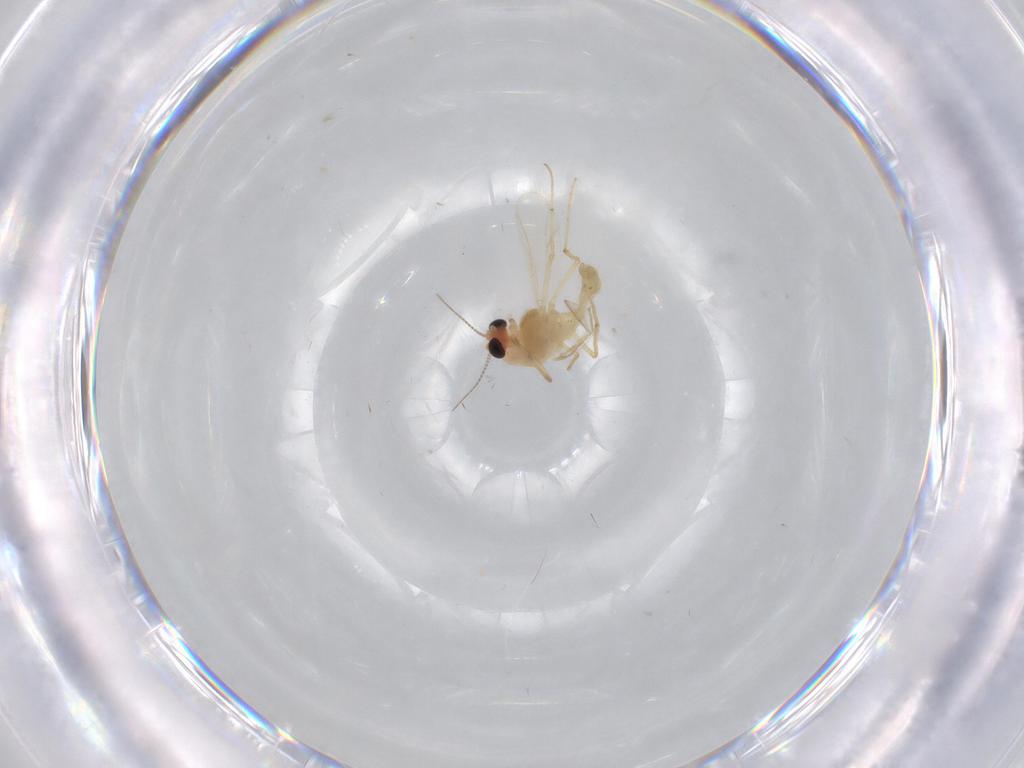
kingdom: Animalia
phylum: Arthropoda
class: Insecta
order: Diptera
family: Chironomidae
